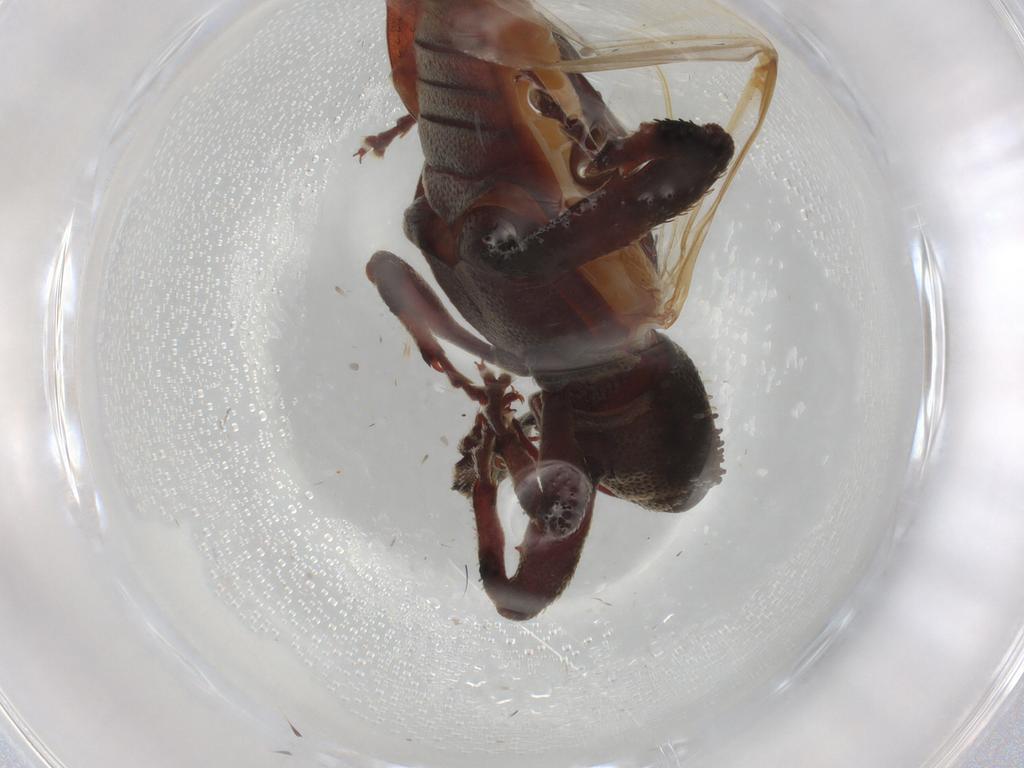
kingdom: Animalia
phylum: Arthropoda
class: Insecta
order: Coleoptera
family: Curculionidae
